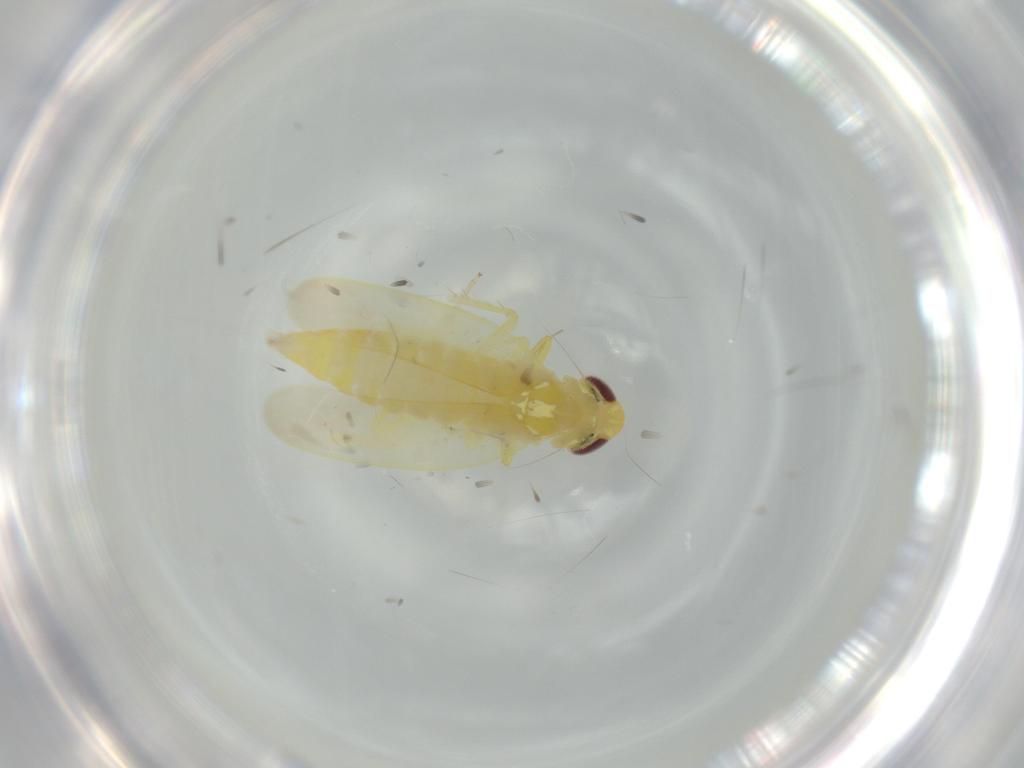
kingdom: Animalia
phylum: Arthropoda
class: Insecta
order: Hemiptera
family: Cicadellidae
